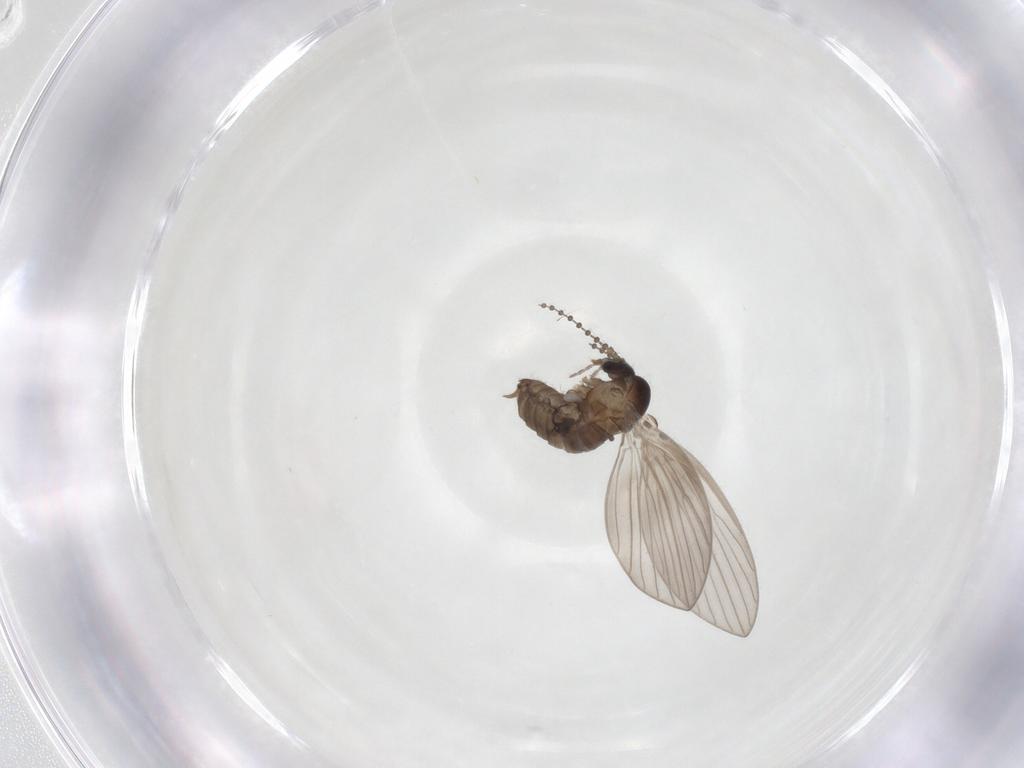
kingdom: Animalia
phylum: Arthropoda
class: Insecta
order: Diptera
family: Psychodidae
